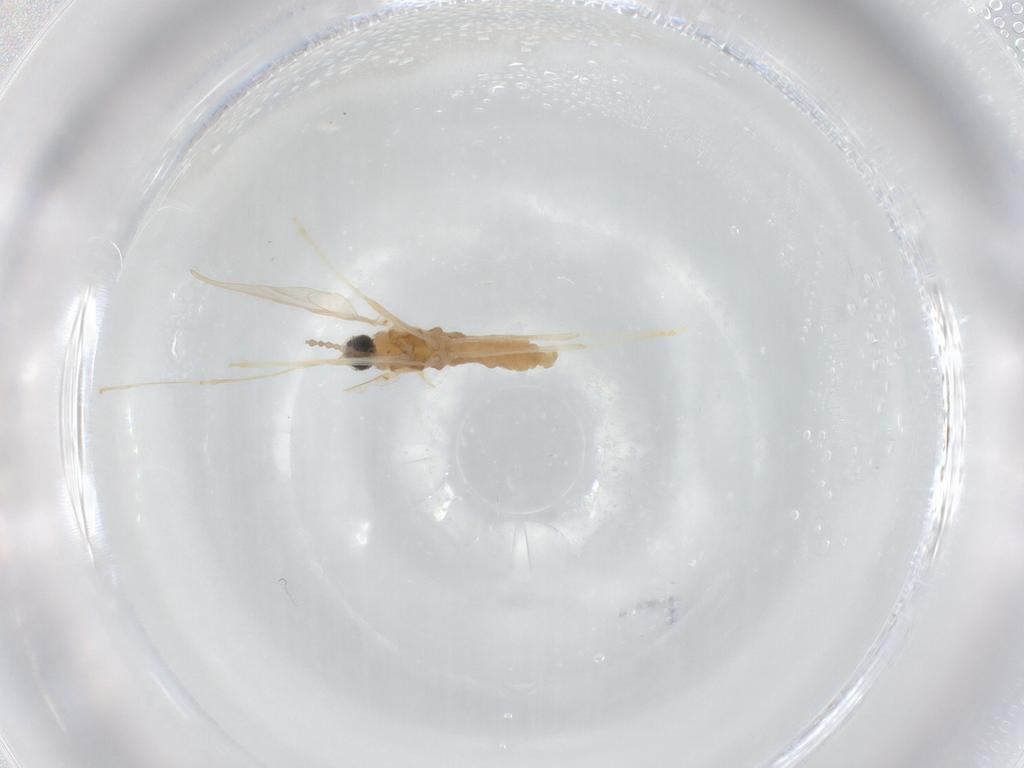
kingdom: Animalia
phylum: Arthropoda
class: Insecta
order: Diptera
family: Cecidomyiidae
